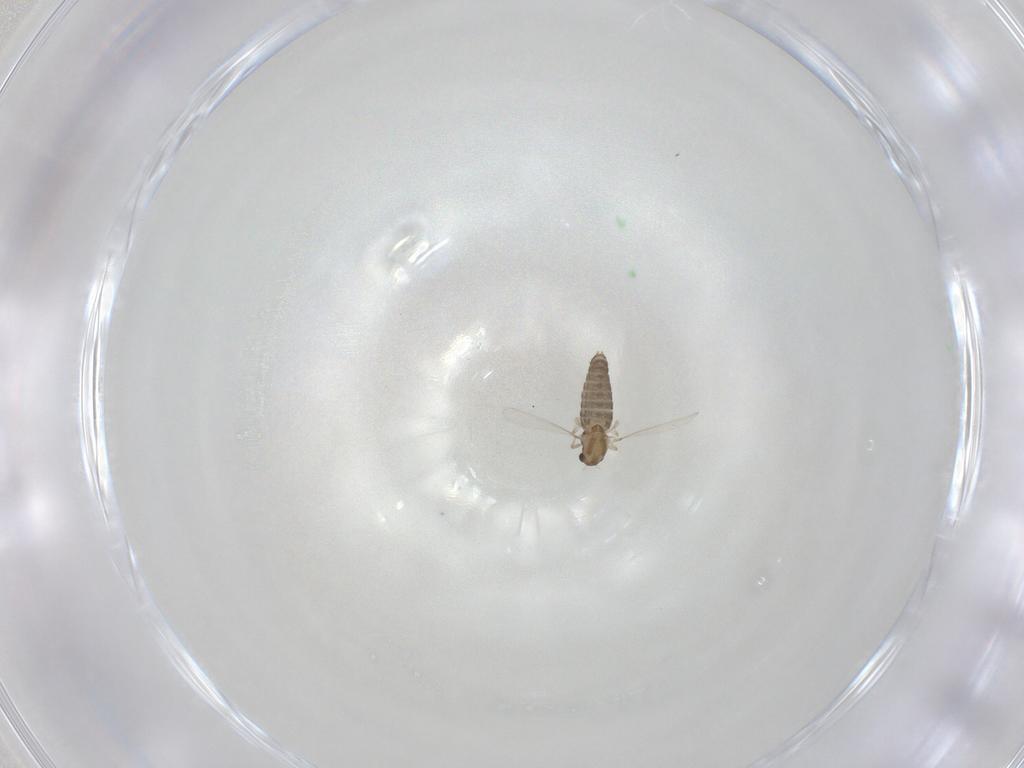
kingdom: Animalia
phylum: Arthropoda
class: Insecta
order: Diptera
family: Chironomidae
